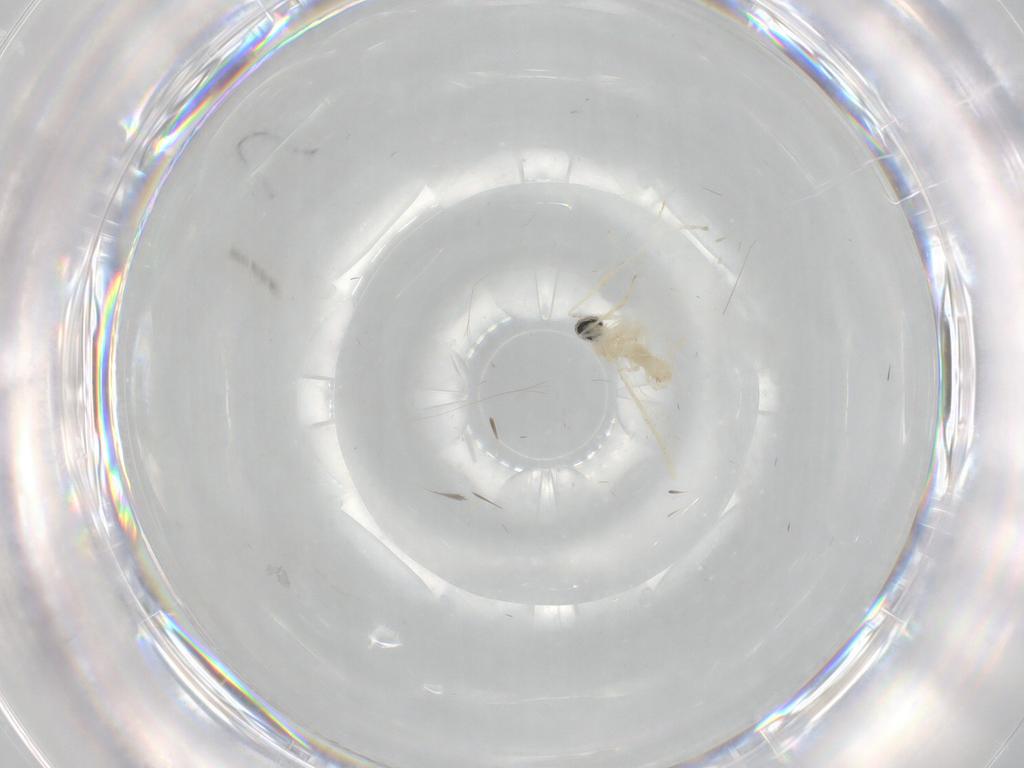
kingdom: Animalia
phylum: Arthropoda
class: Insecta
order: Diptera
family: Cecidomyiidae
